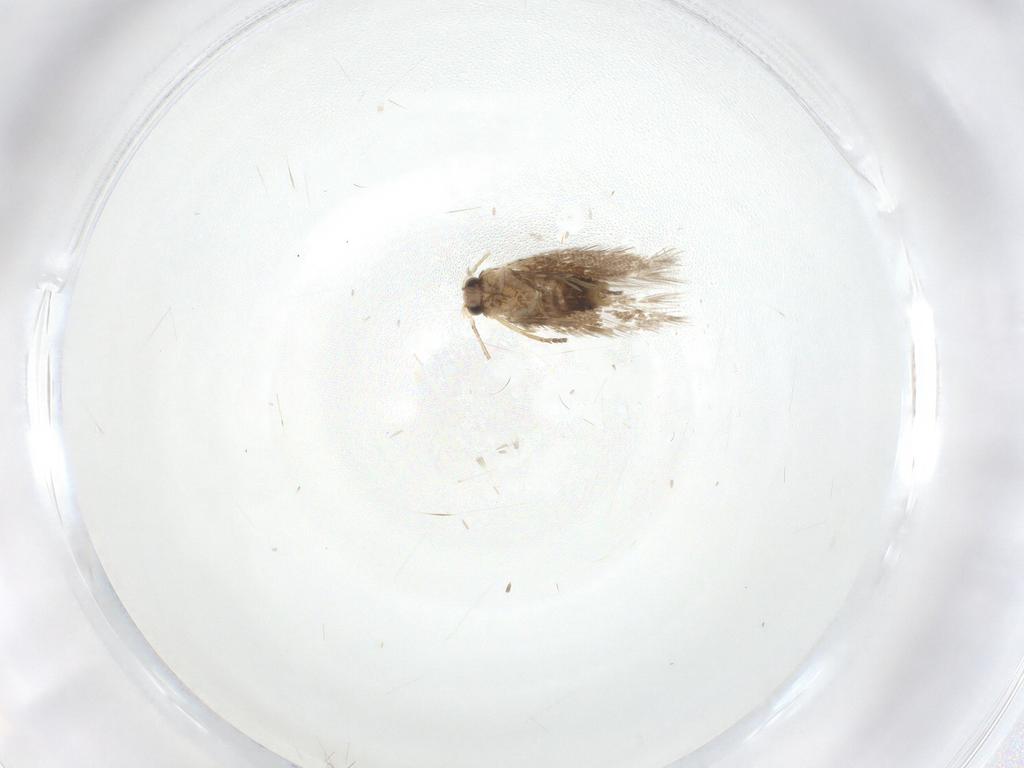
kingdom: Animalia
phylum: Arthropoda
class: Insecta
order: Lepidoptera
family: Nepticulidae
